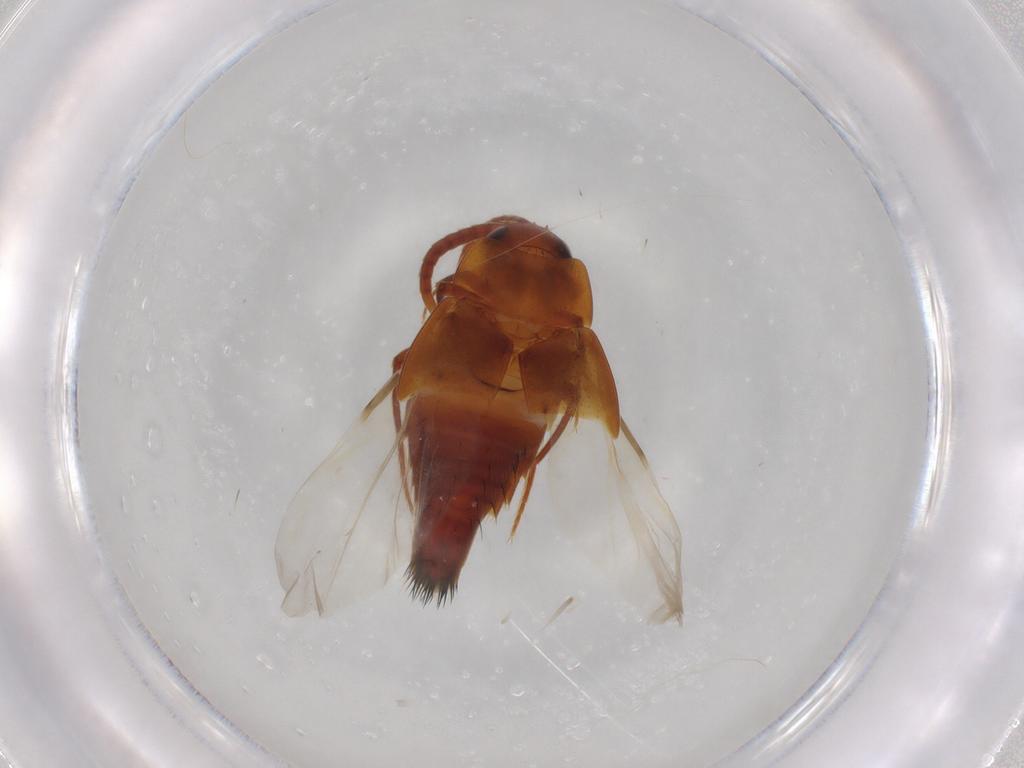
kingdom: Animalia
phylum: Arthropoda
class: Insecta
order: Coleoptera
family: Staphylinidae
